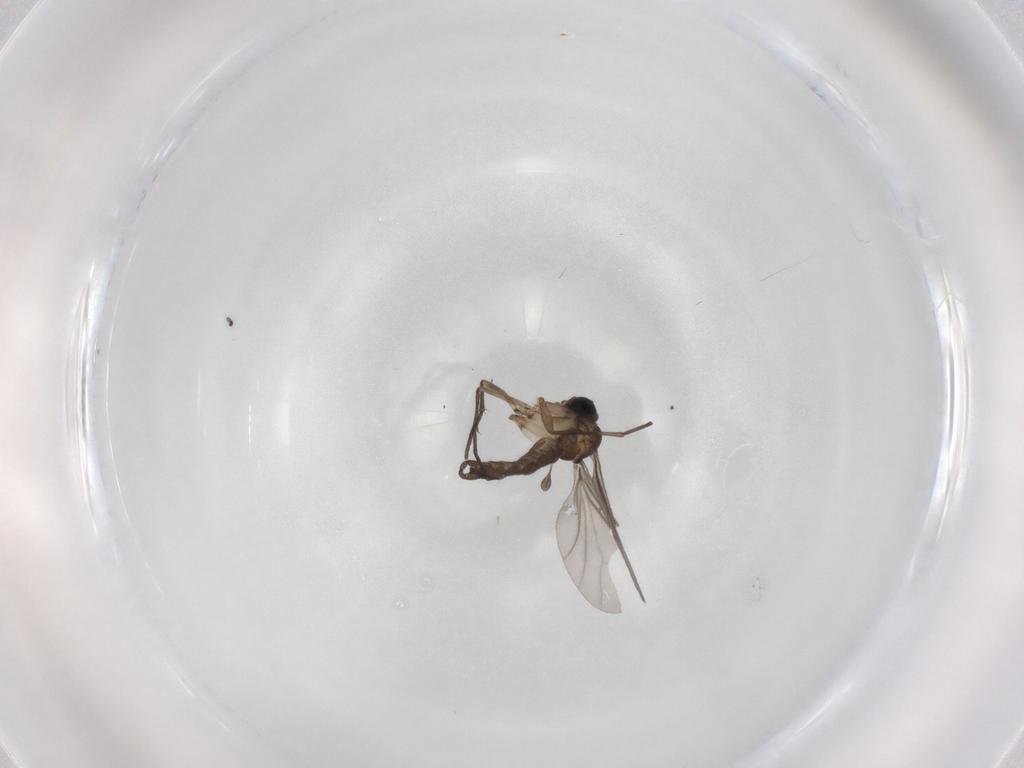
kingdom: Animalia
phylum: Arthropoda
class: Insecta
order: Diptera
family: Sciaridae
